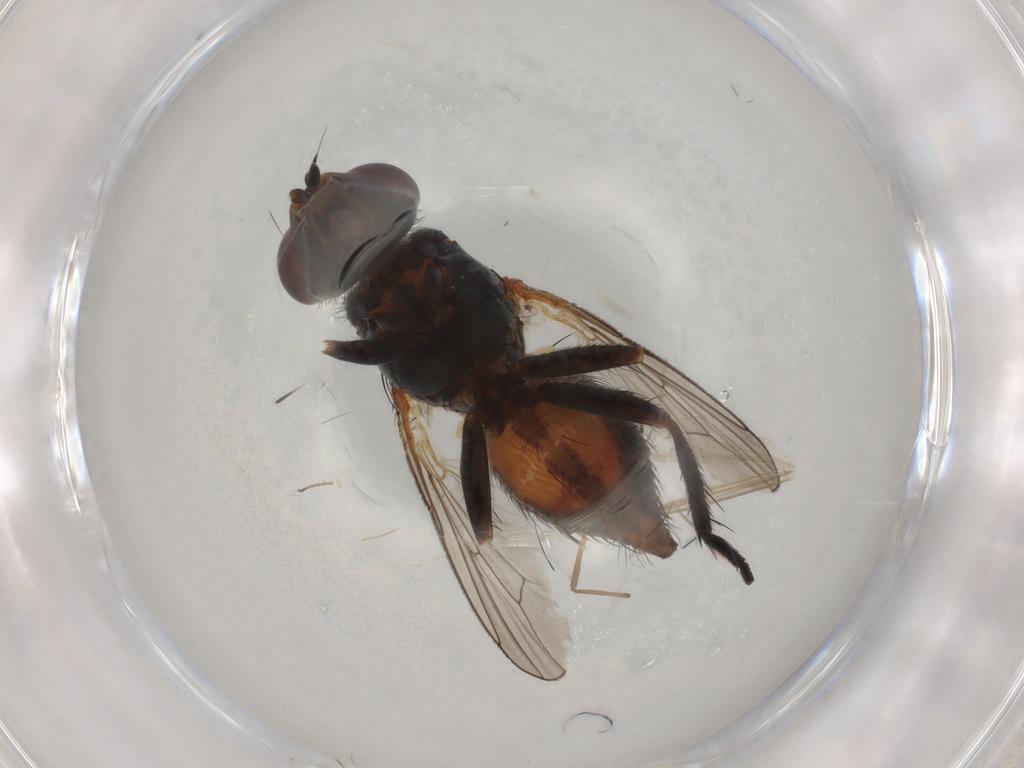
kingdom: Animalia
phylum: Arthropoda
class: Insecta
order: Diptera
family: Anthomyiidae
